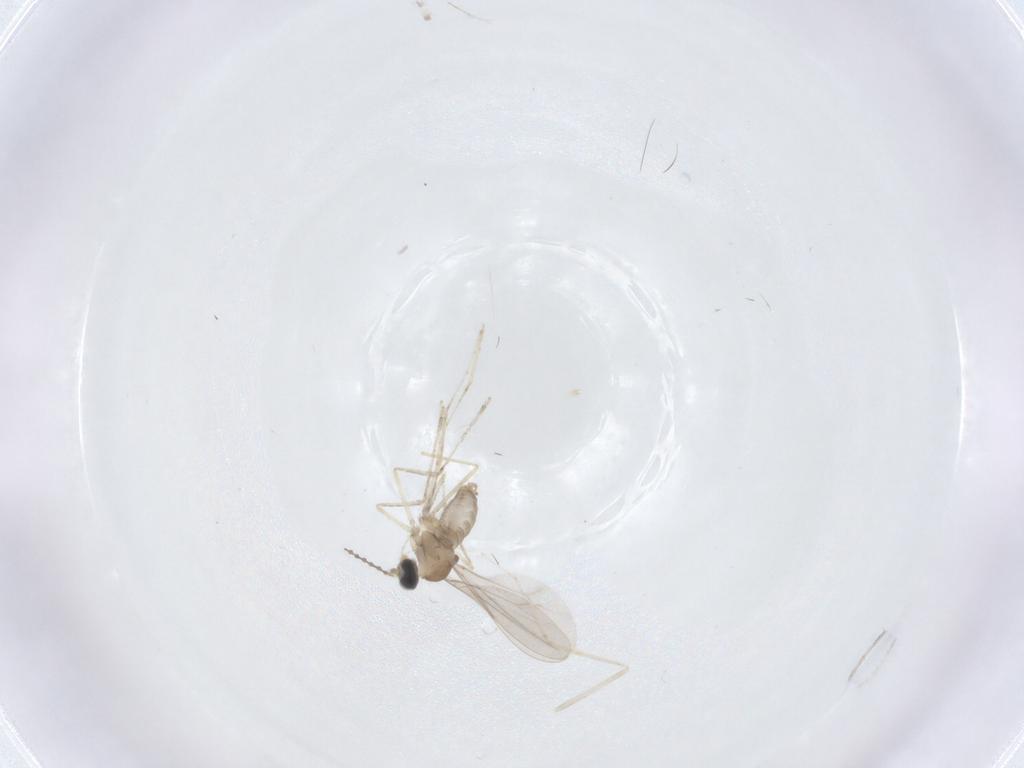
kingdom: Animalia
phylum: Arthropoda
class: Insecta
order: Diptera
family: Cecidomyiidae
